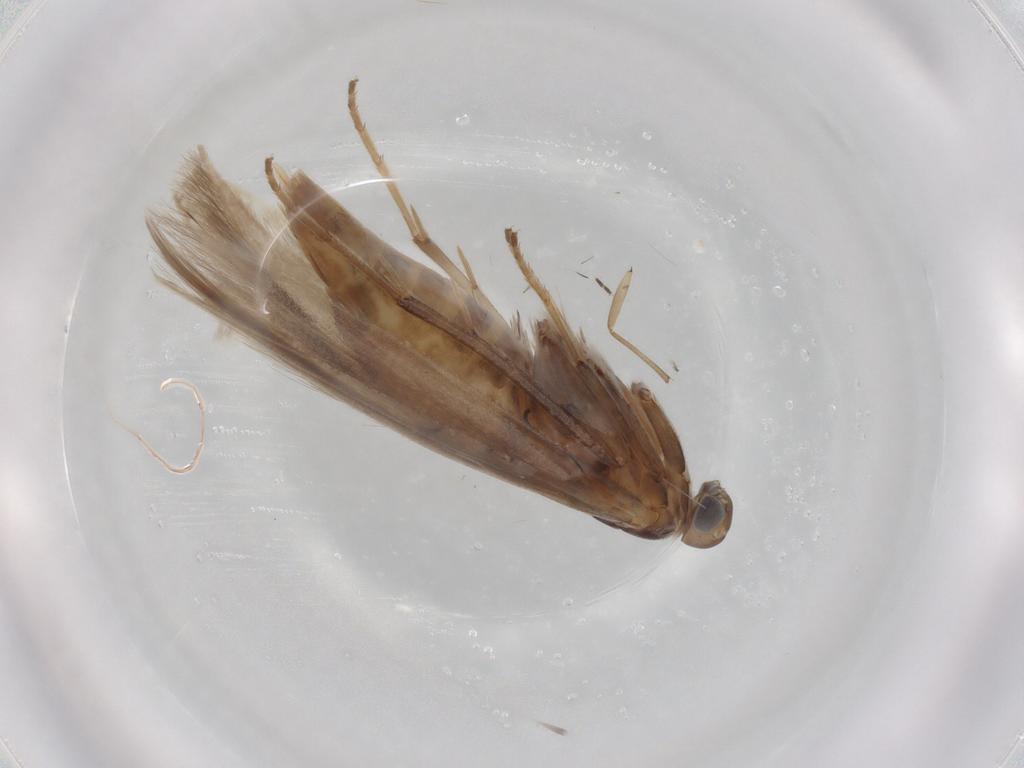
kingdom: Animalia
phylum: Arthropoda
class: Insecta
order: Lepidoptera
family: Coleophoridae
